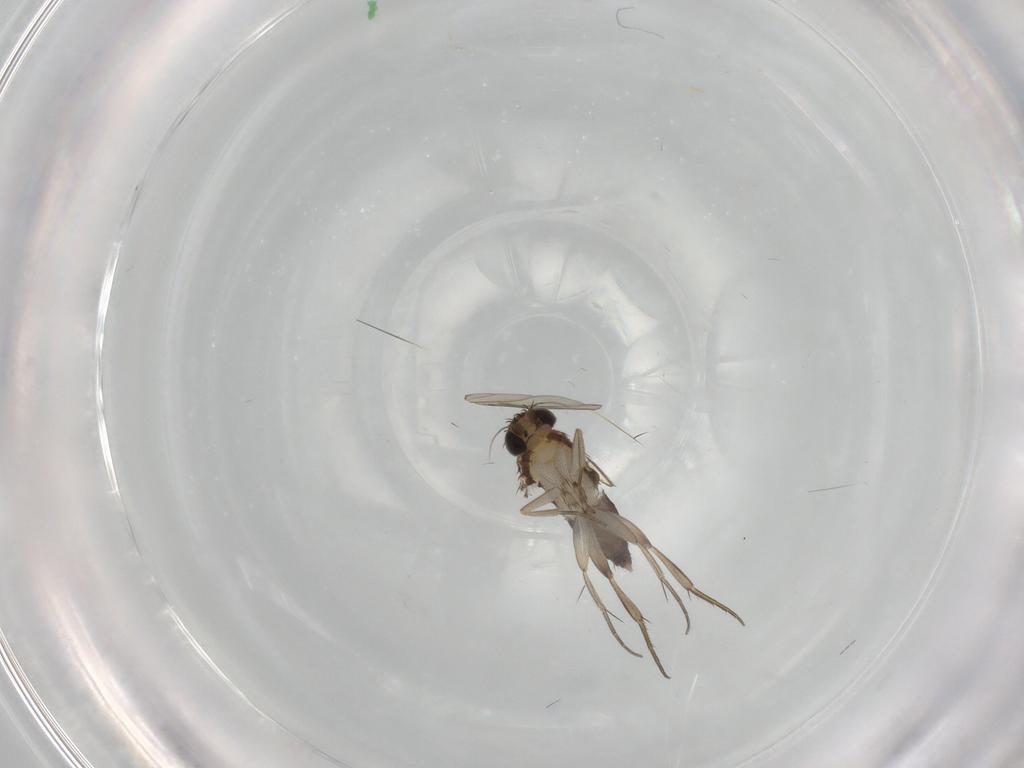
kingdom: Animalia
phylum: Arthropoda
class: Insecta
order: Diptera
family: Phoridae
